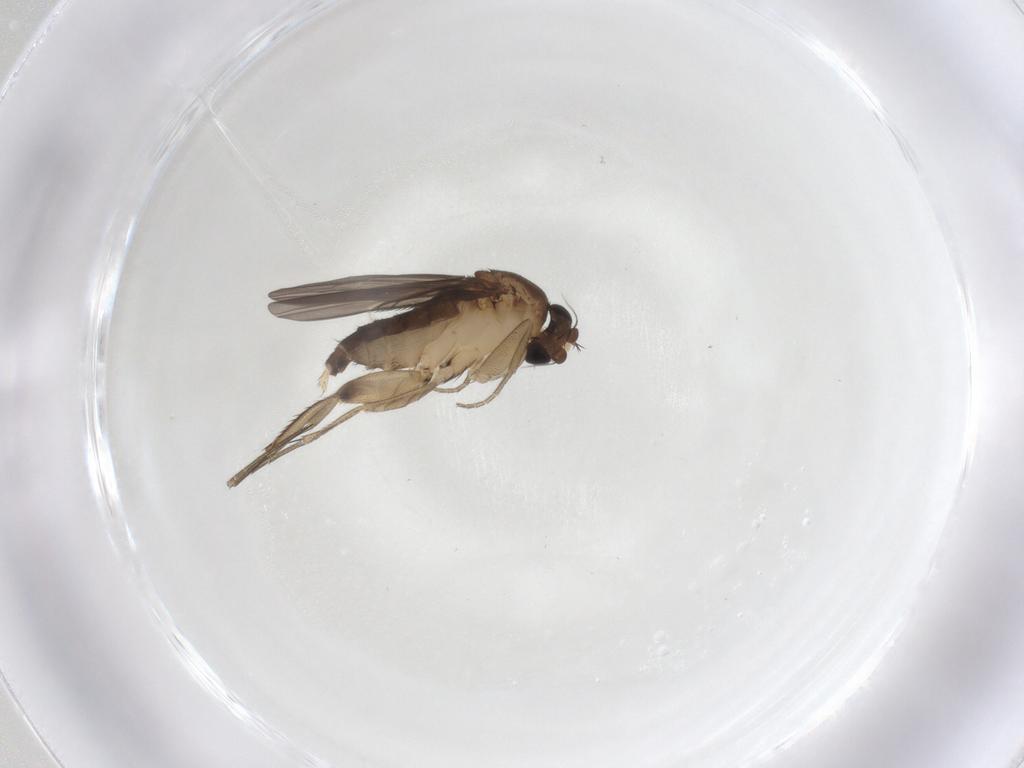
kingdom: Animalia
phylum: Arthropoda
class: Insecta
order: Diptera
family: Phoridae
